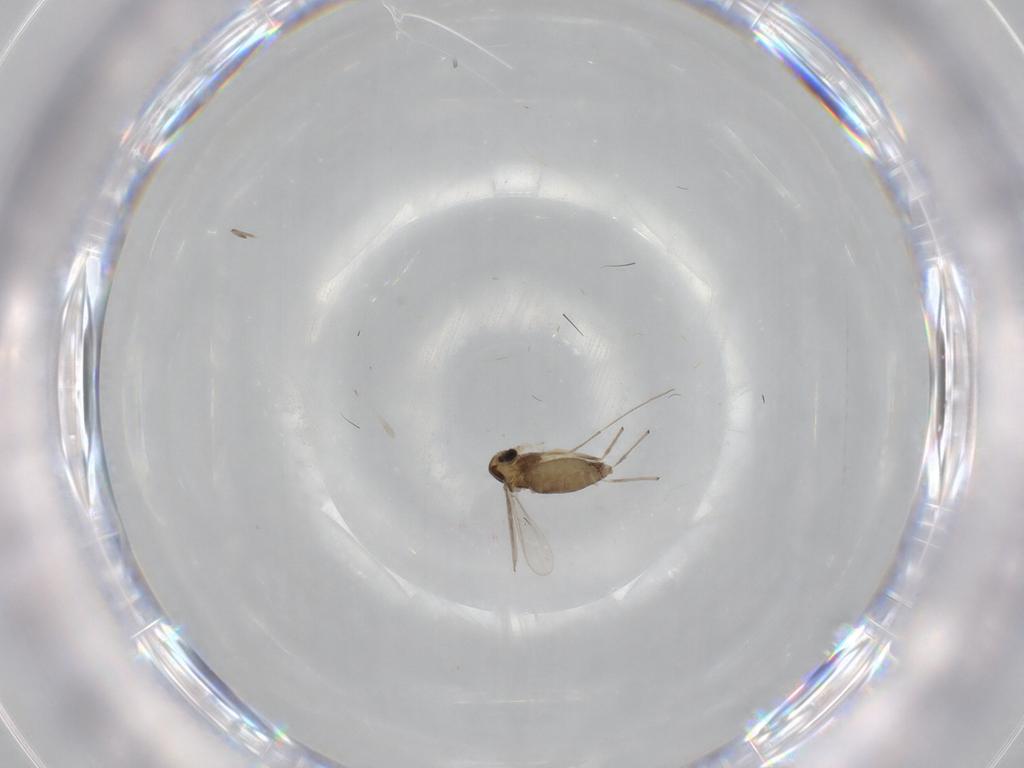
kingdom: Animalia
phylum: Arthropoda
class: Insecta
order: Diptera
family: Chironomidae
